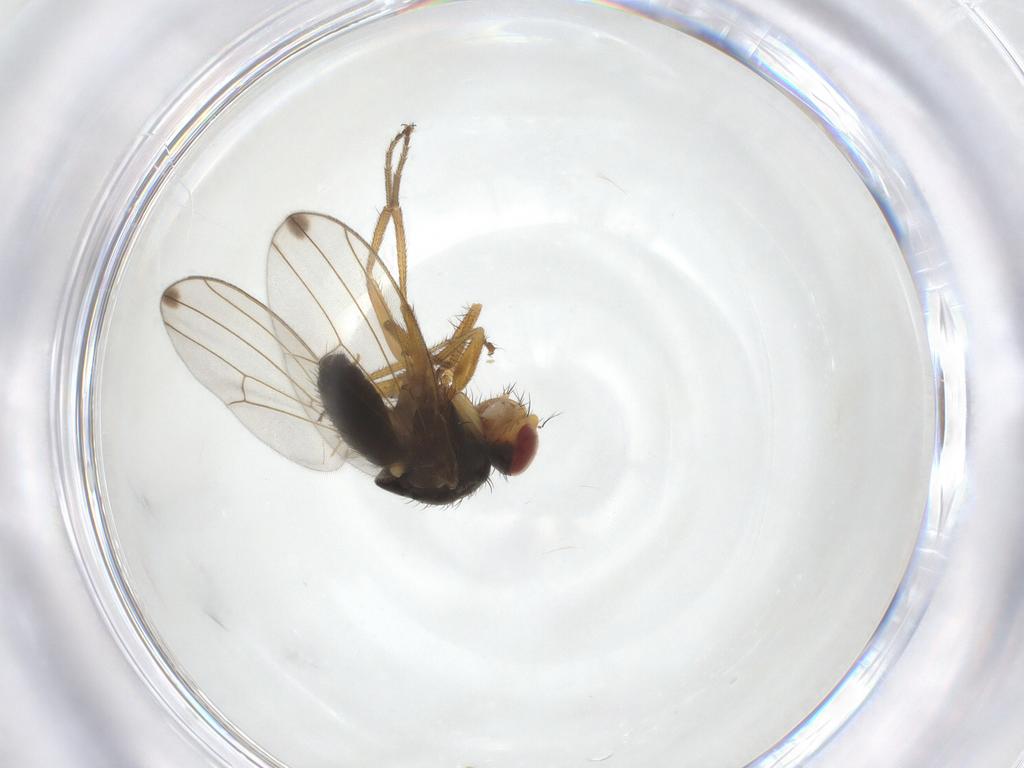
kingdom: Animalia
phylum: Arthropoda
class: Insecta
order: Diptera
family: Drosophilidae
